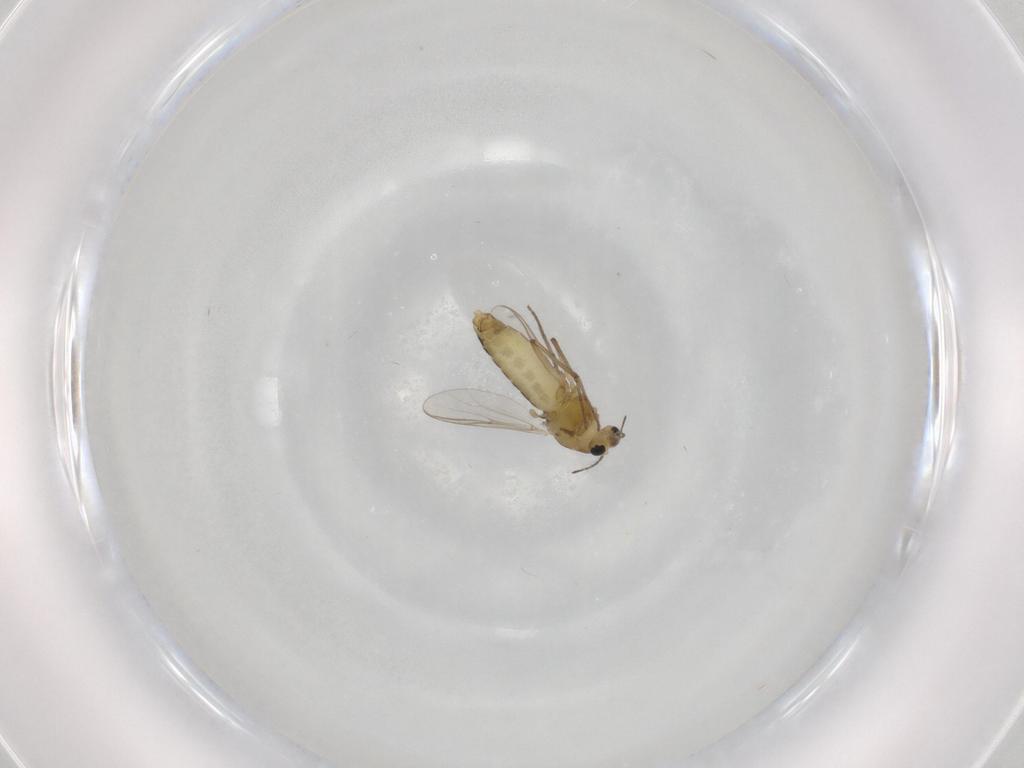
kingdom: Animalia
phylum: Arthropoda
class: Insecta
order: Diptera
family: Chironomidae
